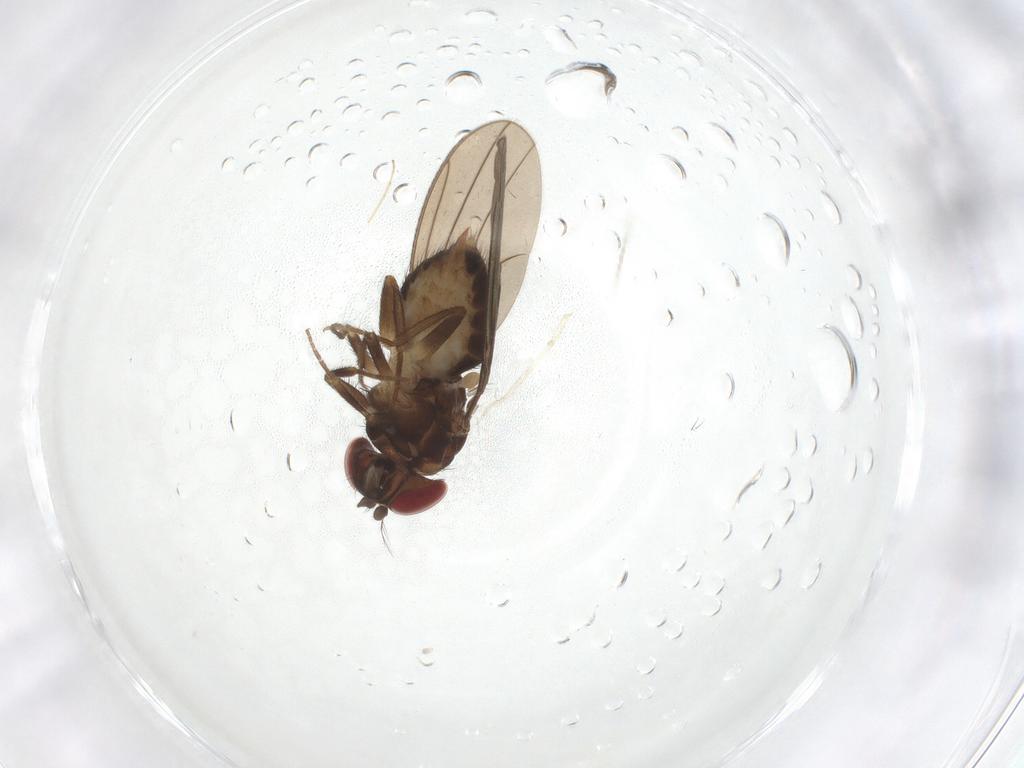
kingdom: Animalia
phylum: Arthropoda
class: Insecta
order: Diptera
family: Drosophilidae
